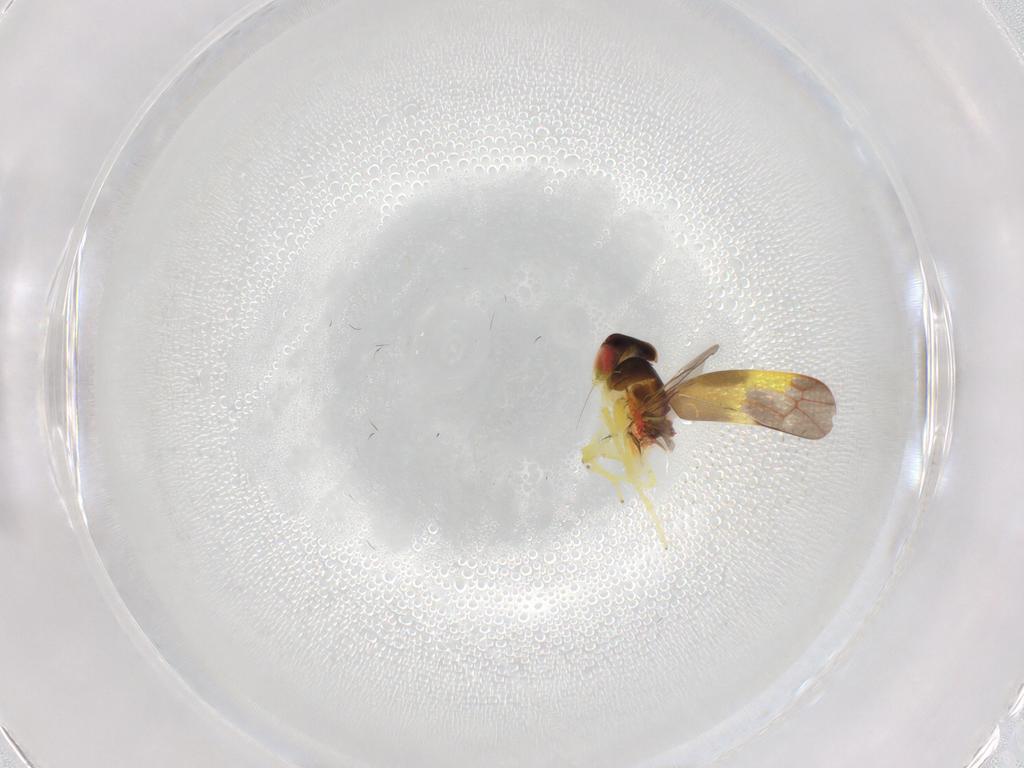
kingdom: Animalia
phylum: Arthropoda
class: Insecta
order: Hemiptera
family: Cicadellidae
